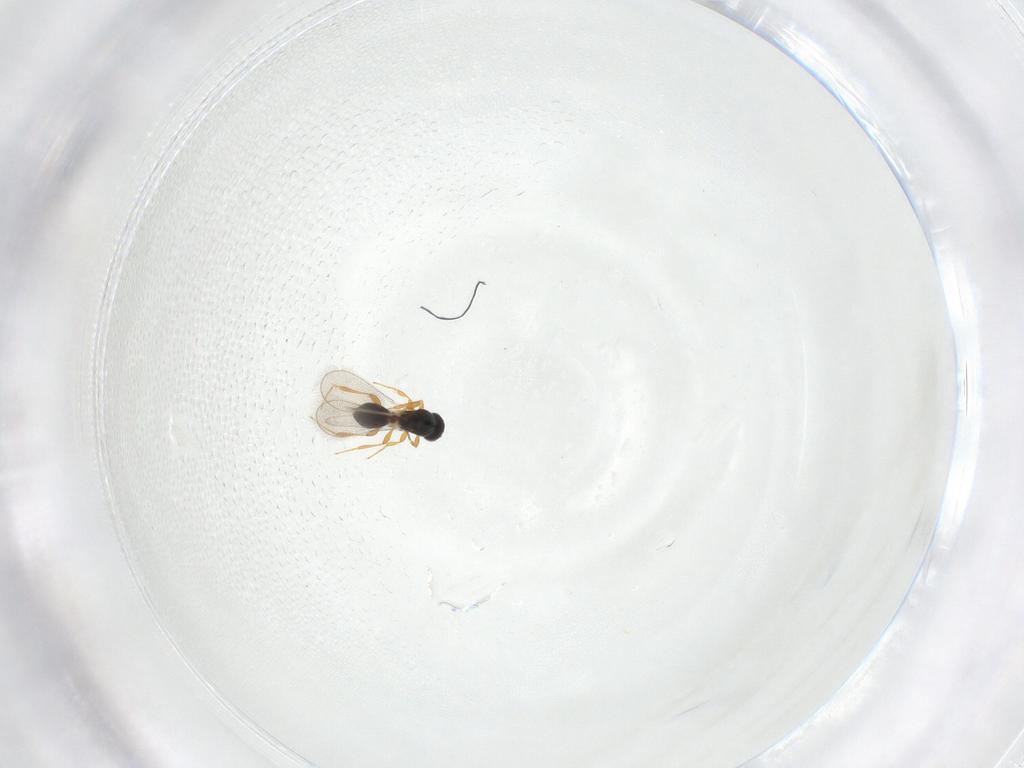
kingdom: Animalia
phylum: Arthropoda
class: Insecta
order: Hymenoptera
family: Platygastridae
